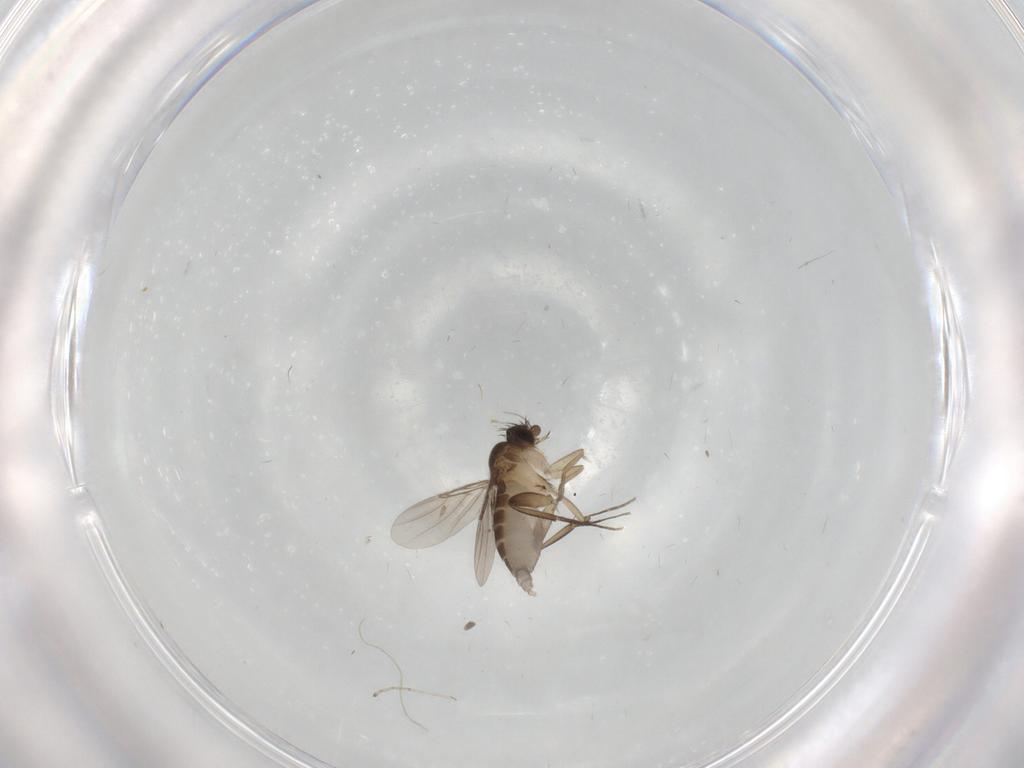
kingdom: Animalia
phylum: Arthropoda
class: Insecta
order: Diptera
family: Phoridae
